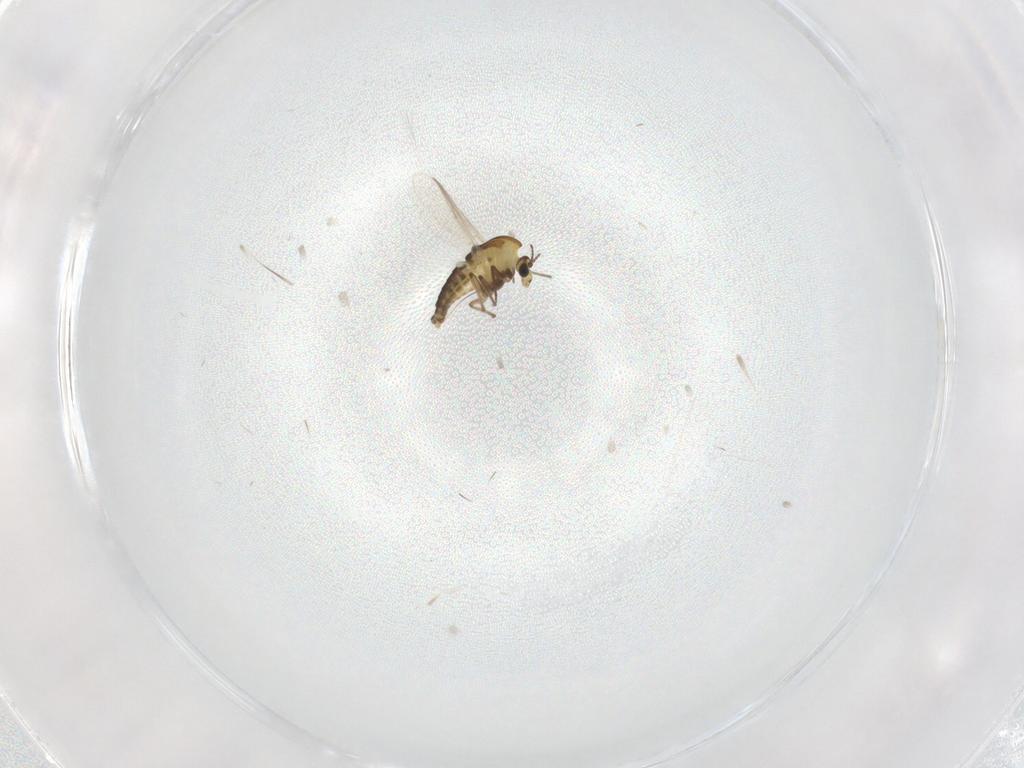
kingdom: Animalia
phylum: Arthropoda
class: Insecta
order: Diptera
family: Chironomidae
